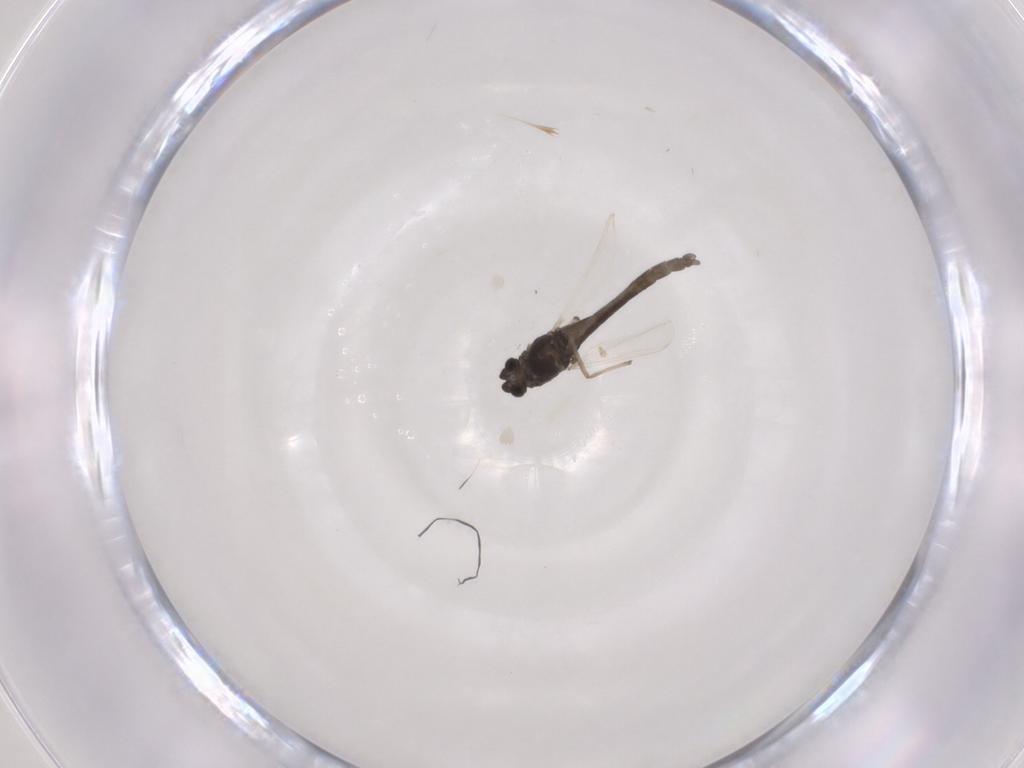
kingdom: Animalia
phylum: Arthropoda
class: Insecta
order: Diptera
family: Chironomidae
